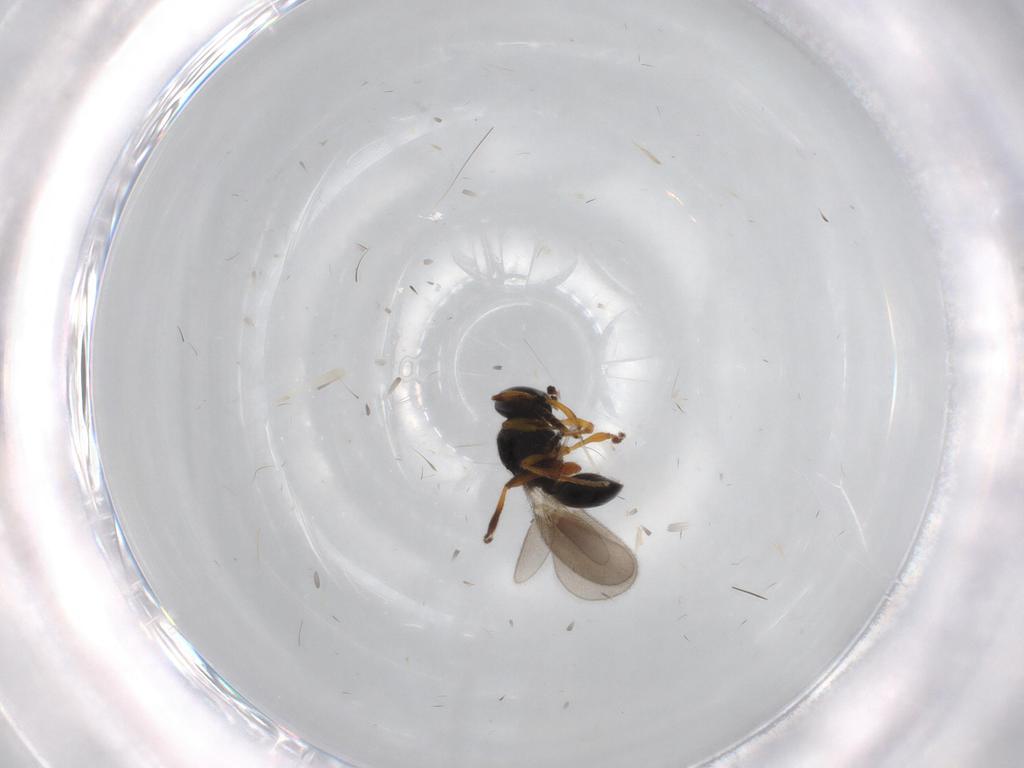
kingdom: Animalia
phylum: Arthropoda
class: Insecta
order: Hymenoptera
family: Platygastridae
